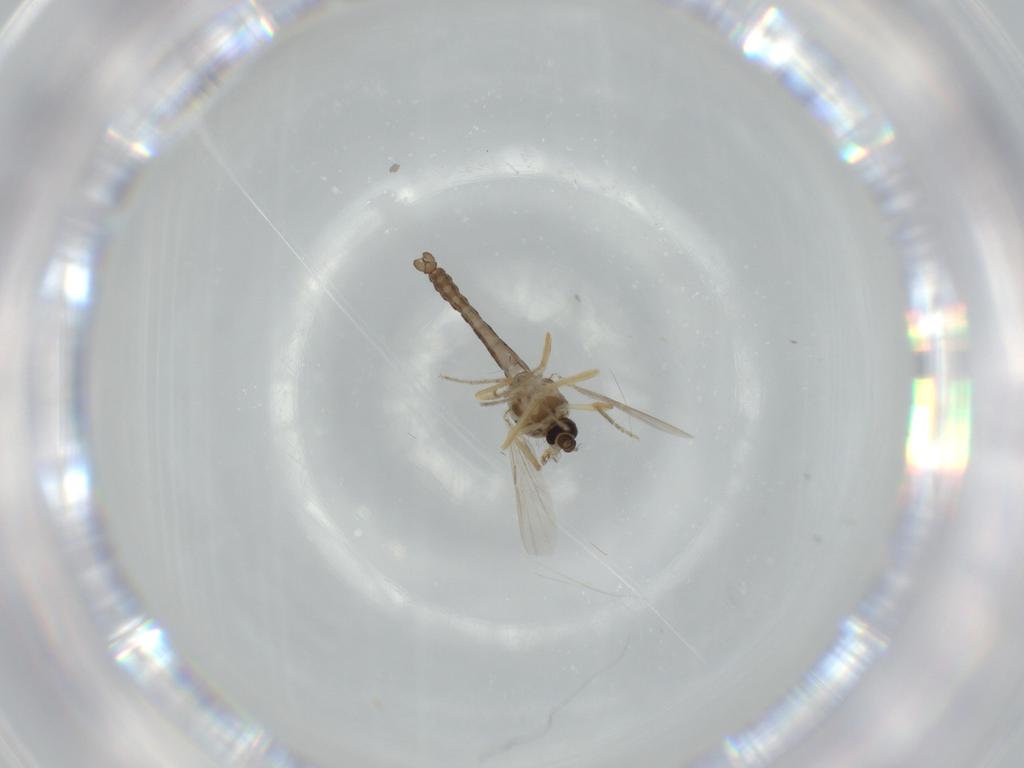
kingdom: Animalia
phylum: Arthropoda
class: Insecta
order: Diptera
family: Ceratopogonidae
